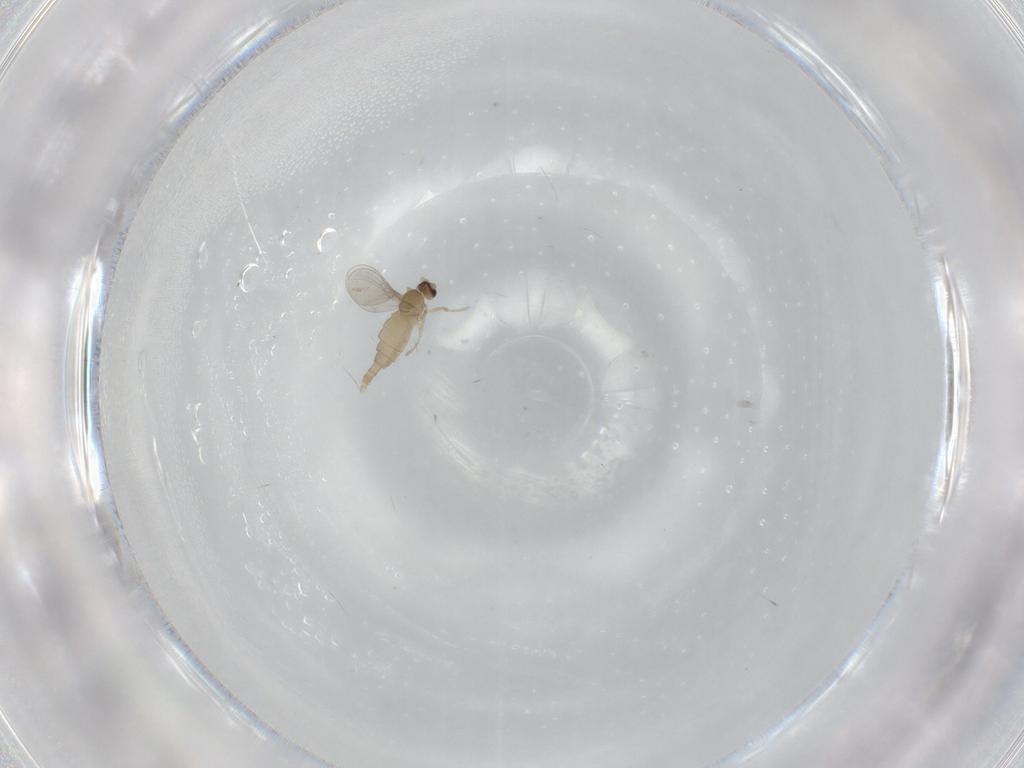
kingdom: Animalia
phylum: Arthropoda
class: Insecta
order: Diptera
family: Cecidomyiidae
